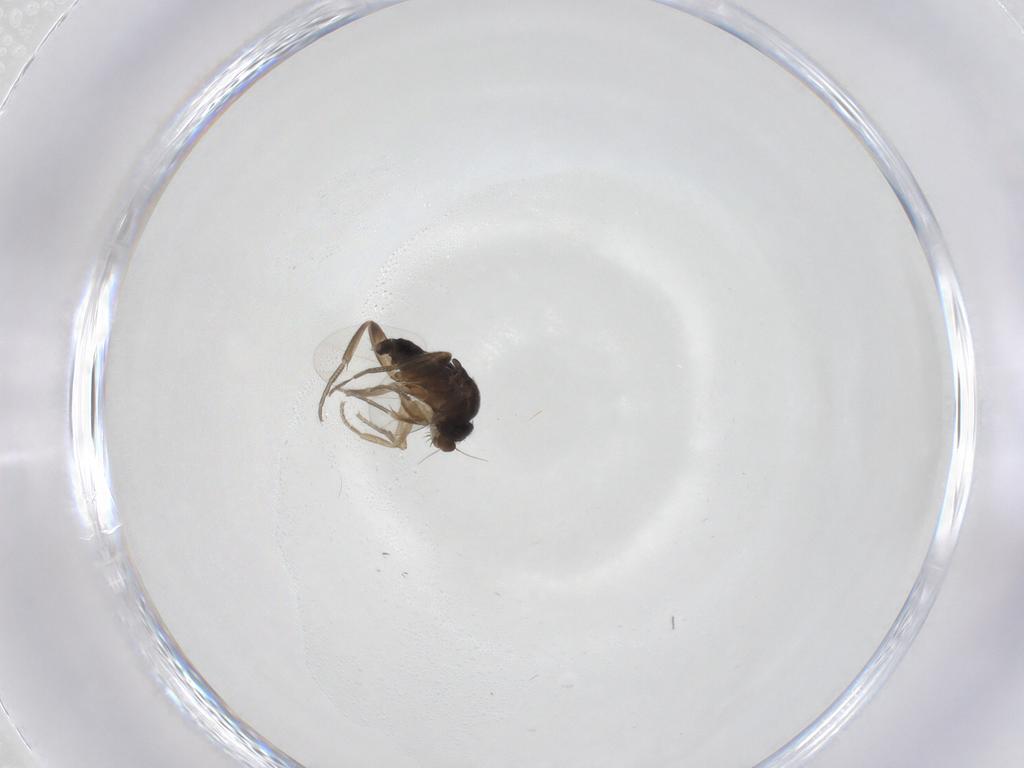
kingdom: Animalia
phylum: Arthropoda
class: Insecta
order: Diptera
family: Phoridae
